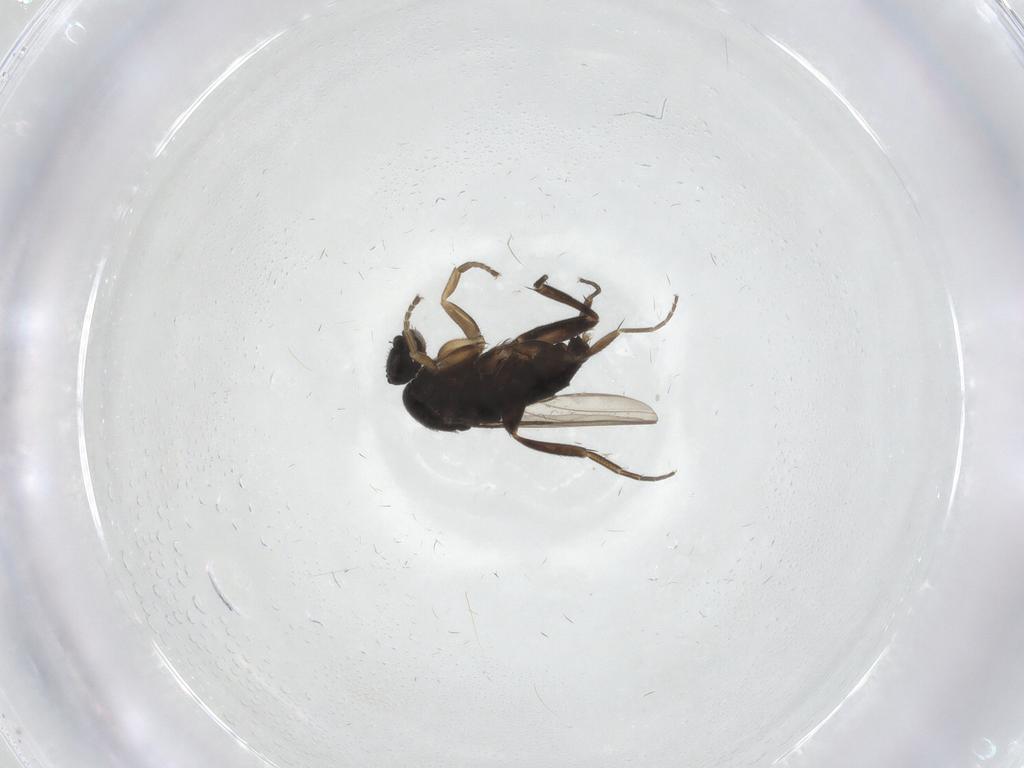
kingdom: Animalia
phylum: Arthropoda
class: Insecta
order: Diptera
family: Phoridae
